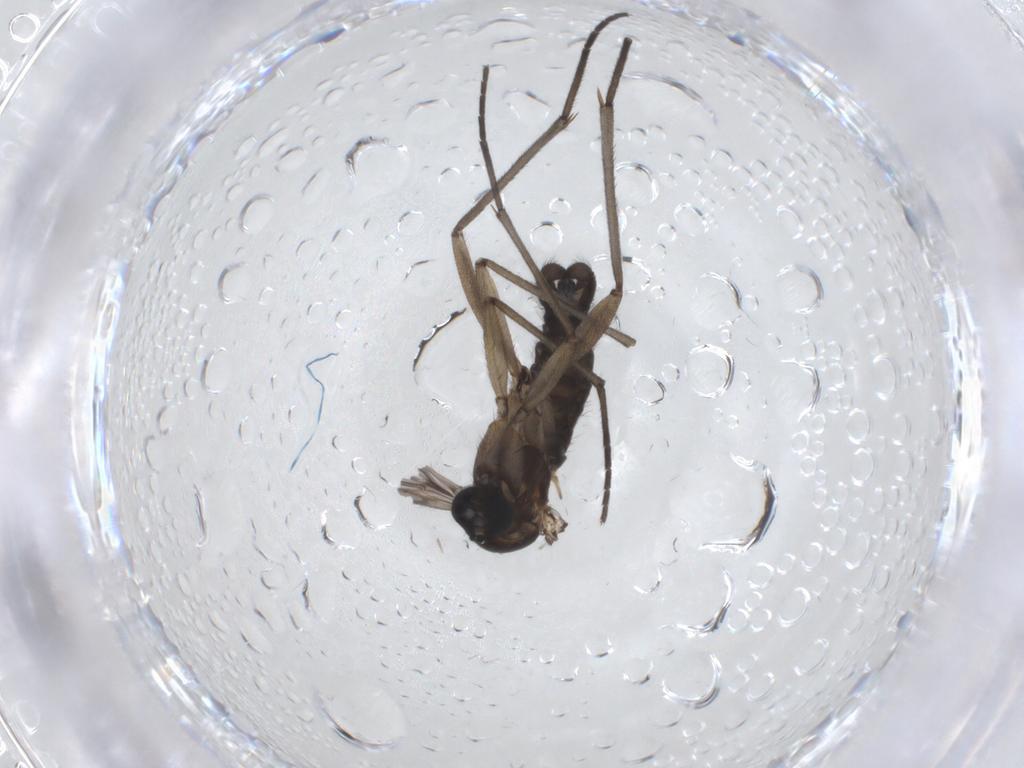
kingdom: Animalia
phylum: Arthropoda
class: Insecta
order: Diptera
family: Sciaridae
